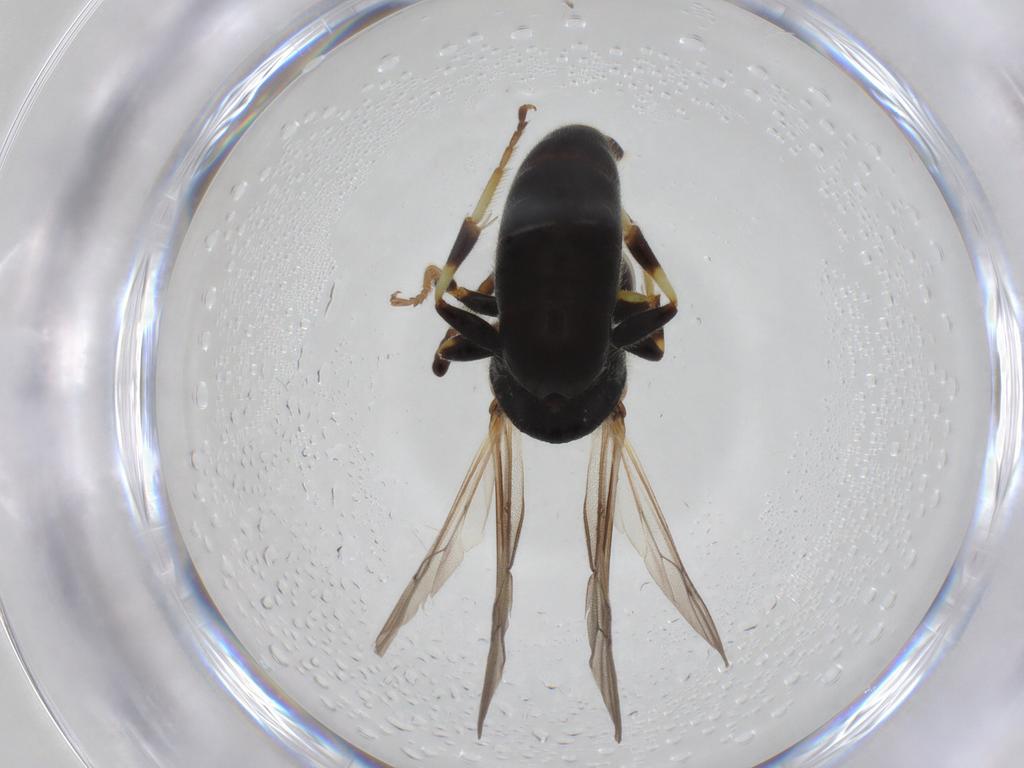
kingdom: Animalia
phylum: Arthropoda
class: Insecta
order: Hymenoptera
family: Colletidae
